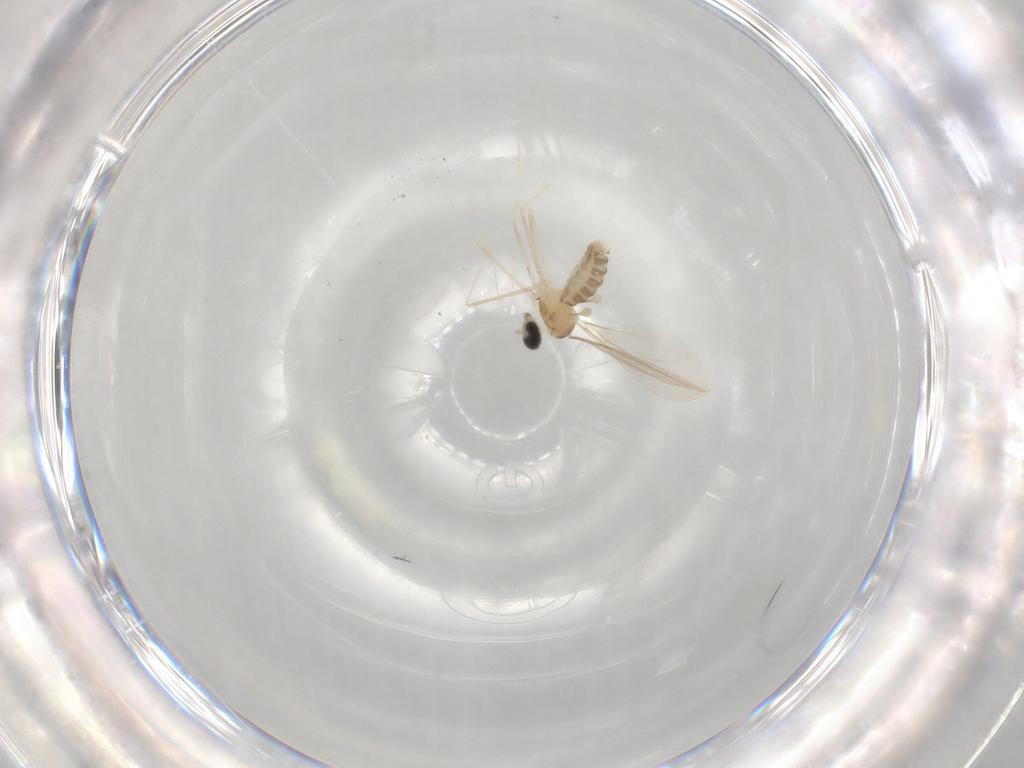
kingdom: Animalia
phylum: Arthropoda
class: Insecta
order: Diptera
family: Cecidomyiidae
